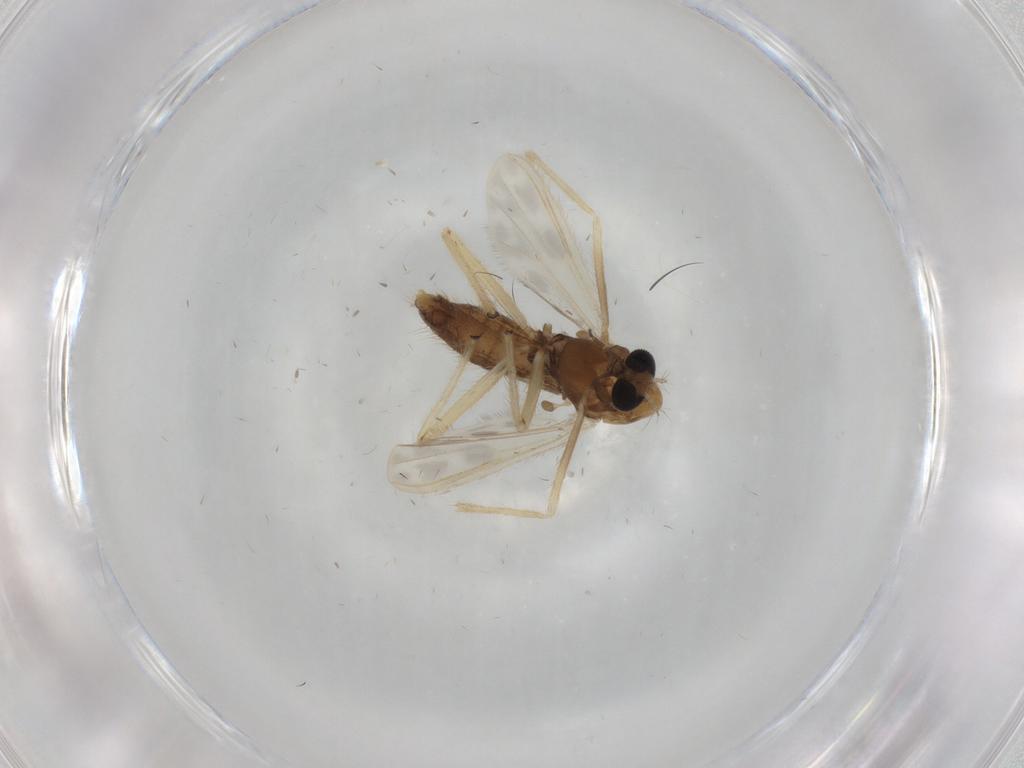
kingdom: Animalia
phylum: Arthropoda
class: Insecta
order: Diptera
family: Chironomidae
